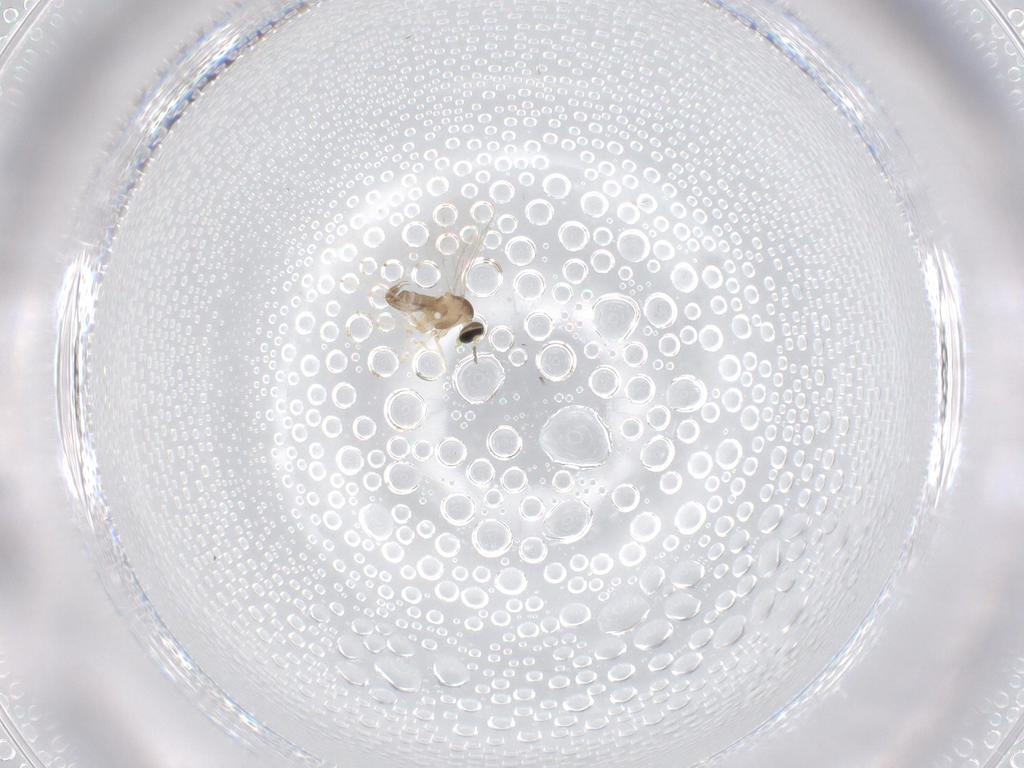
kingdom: Animalia
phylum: Arthropoda
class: Insecta
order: Diptera
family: Cecidomyiidae
